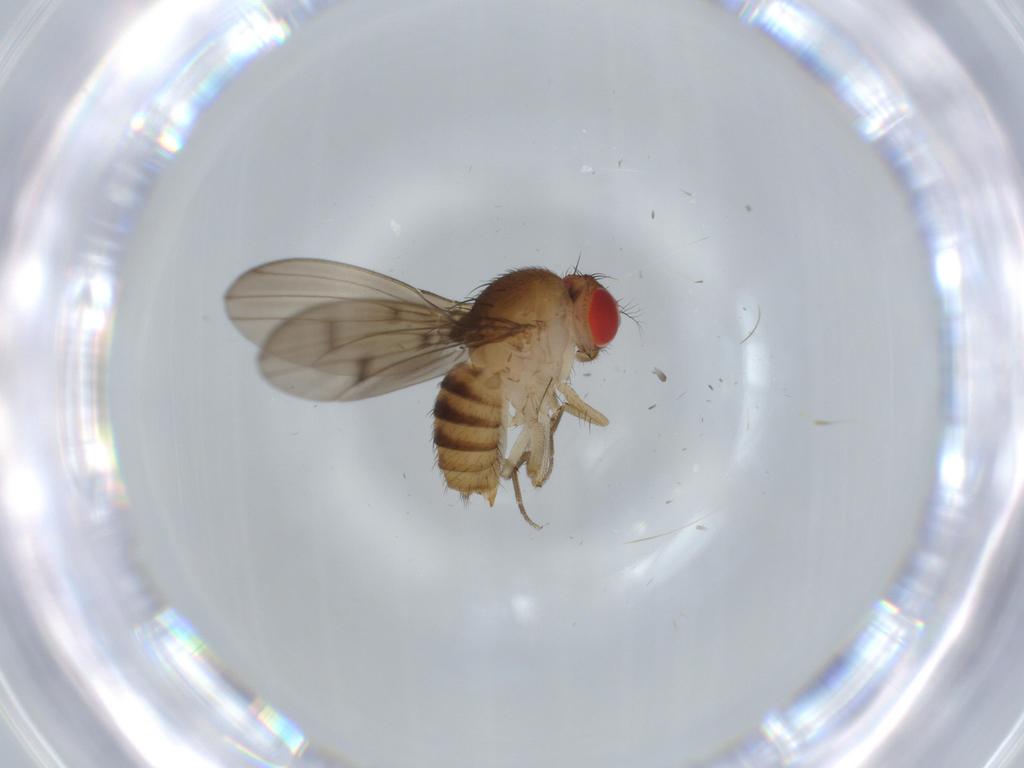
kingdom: Animalia
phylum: Arthropoda
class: Insecta
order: Diptera
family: Drosophilidae
